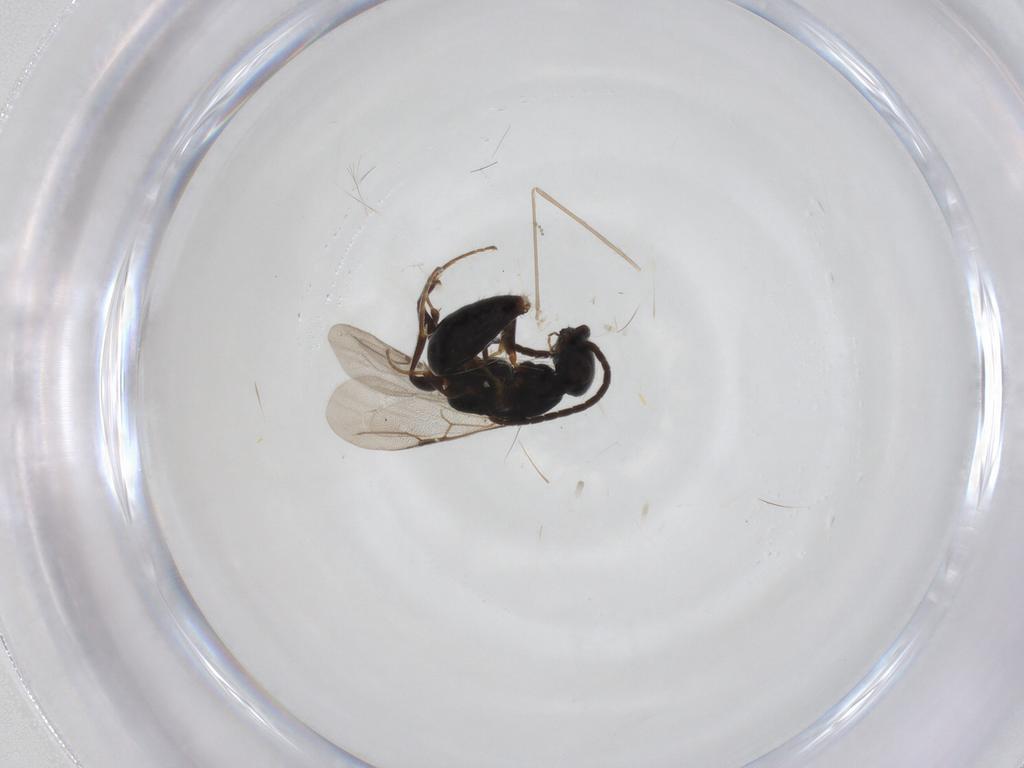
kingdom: Animalia
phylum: Arthropoda
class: Insecta
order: Hymenoptera
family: Bethylidae
